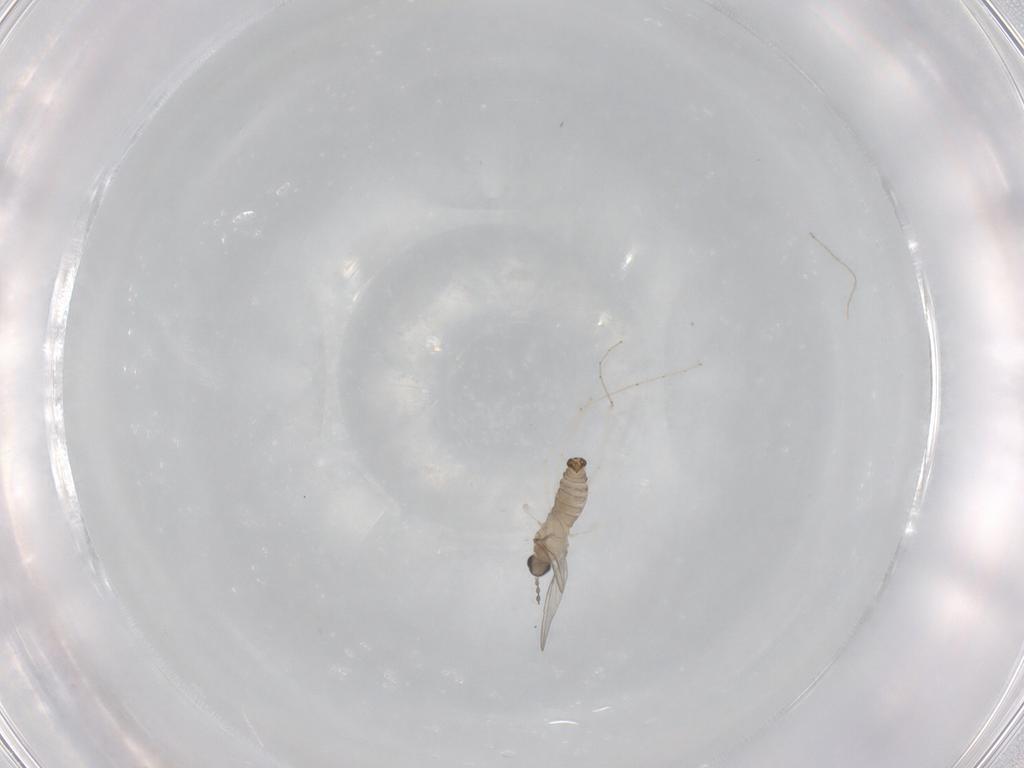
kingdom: Animalia
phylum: Arthropoda
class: Insecta
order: Diptera
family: Cecidomyiidae
